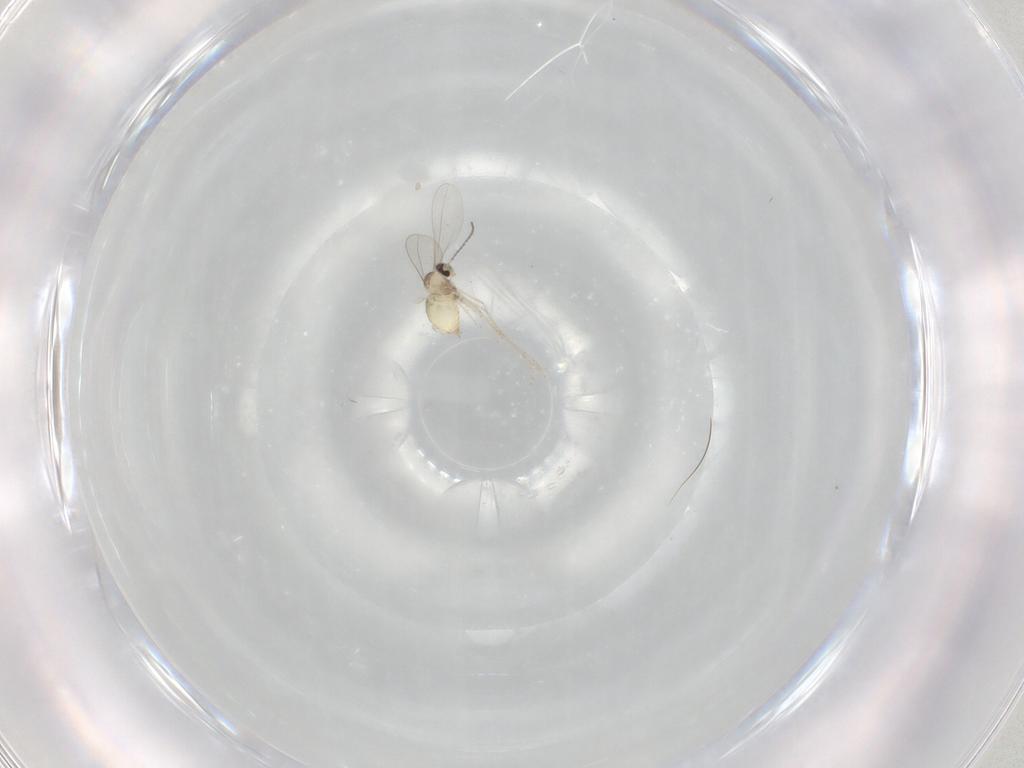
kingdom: Animalia
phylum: Arthropoda
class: Insecta
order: Diptera
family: Cecidomyiidae
